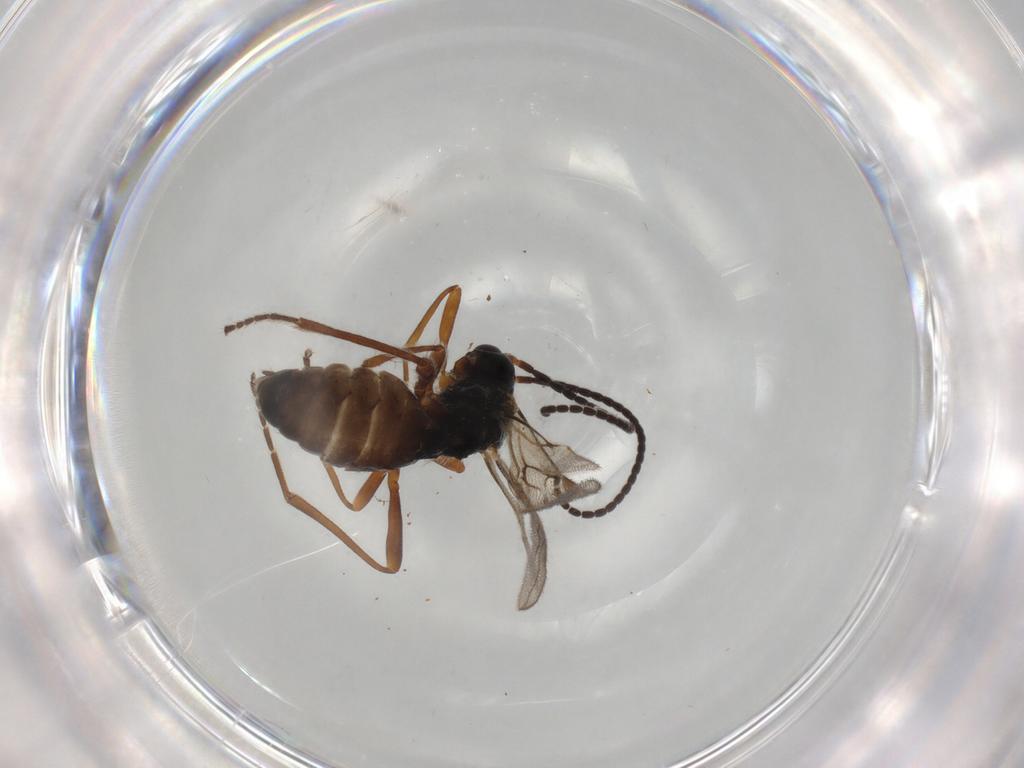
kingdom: Animalia
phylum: Arthropoda
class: Insecta
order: Hymenoptera
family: Braconidae
